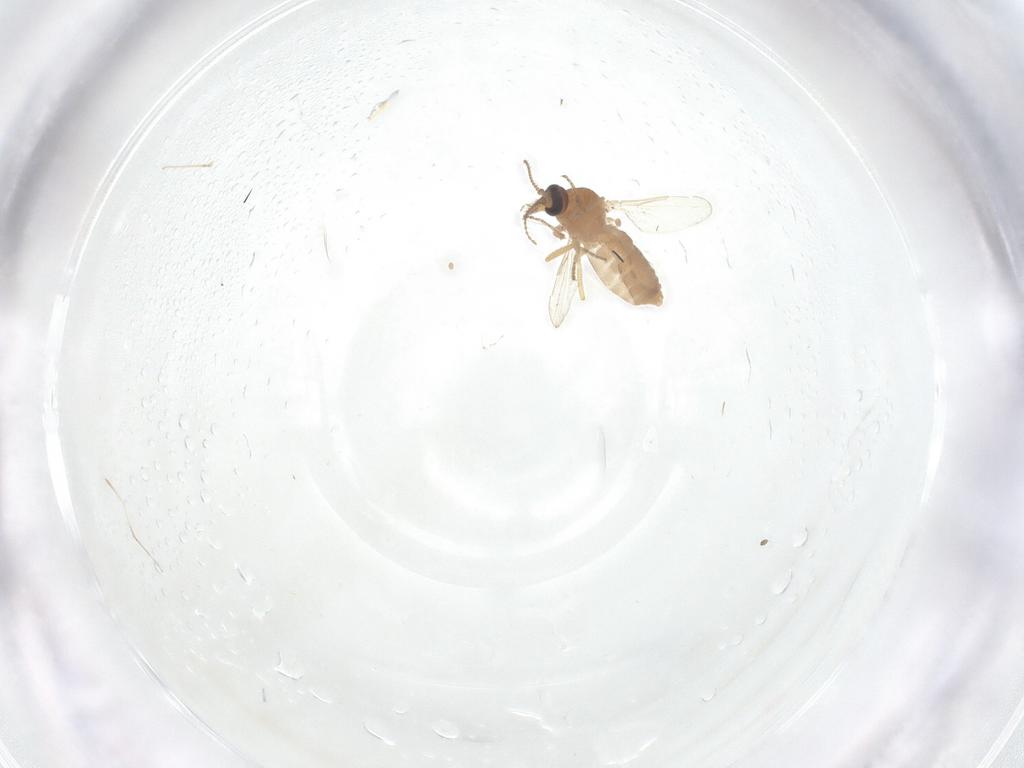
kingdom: Animalia
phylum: Arthropoda
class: Insecta
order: Diptera
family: Ceratopogonidae
